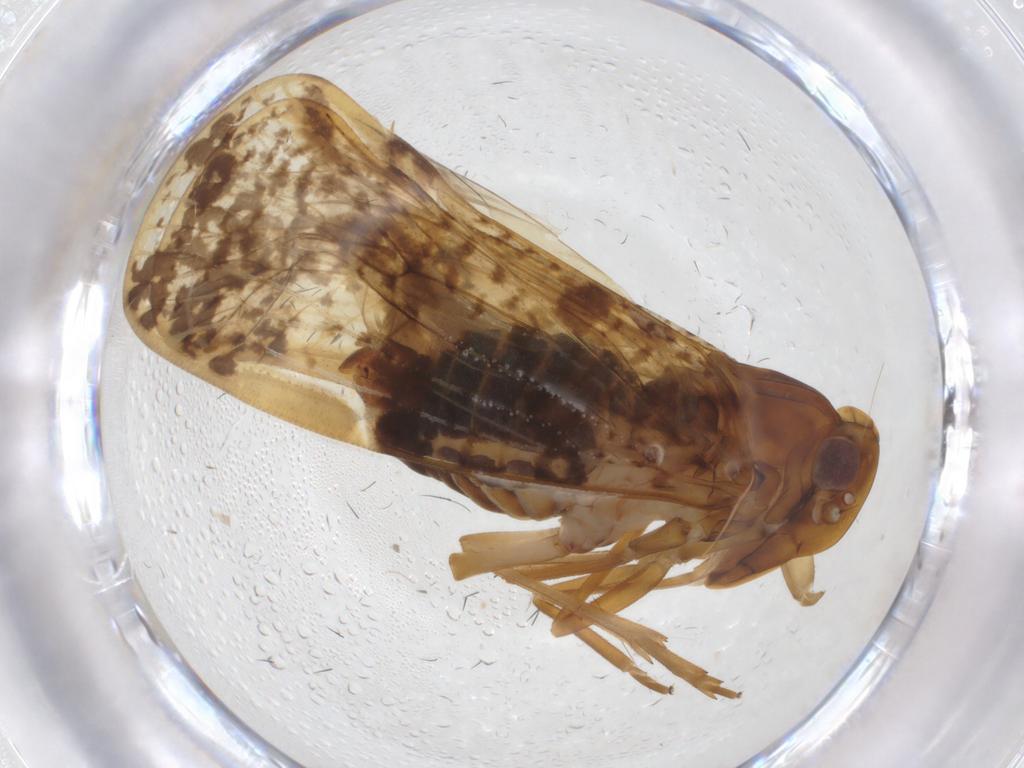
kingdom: Animalia
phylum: Arthropoda
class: Insecta
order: Hemiptera
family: Cixiidae
